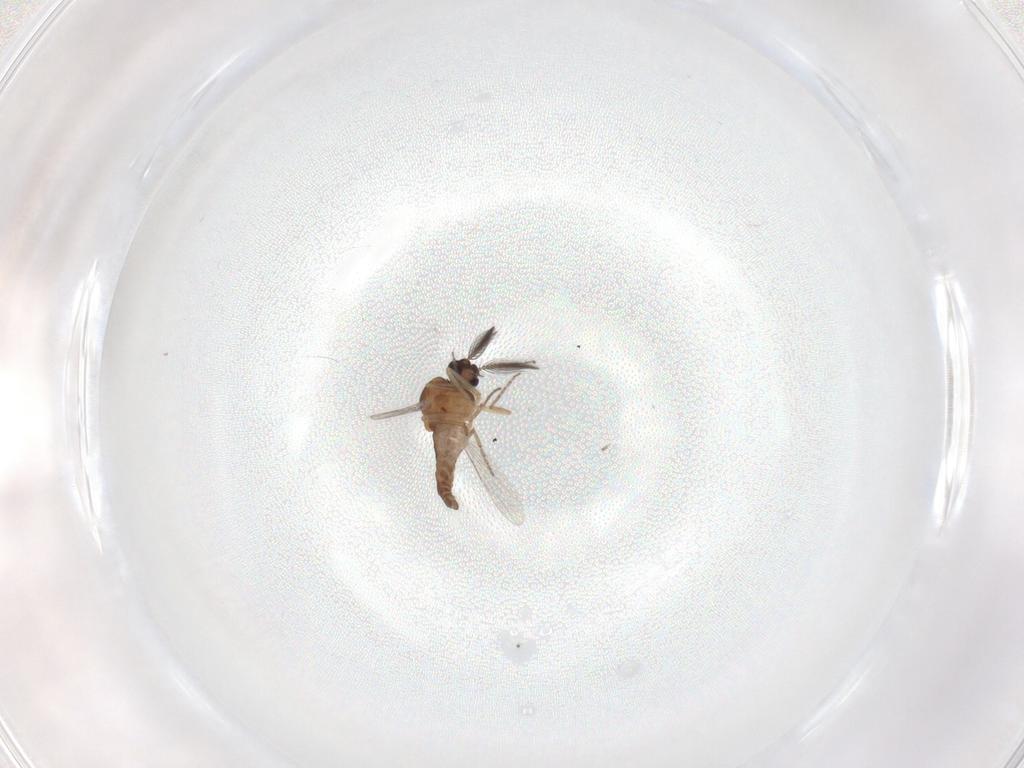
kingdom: Animalia
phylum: Arthropoda
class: Insecta
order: Diptera
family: Ceratopogonidae
